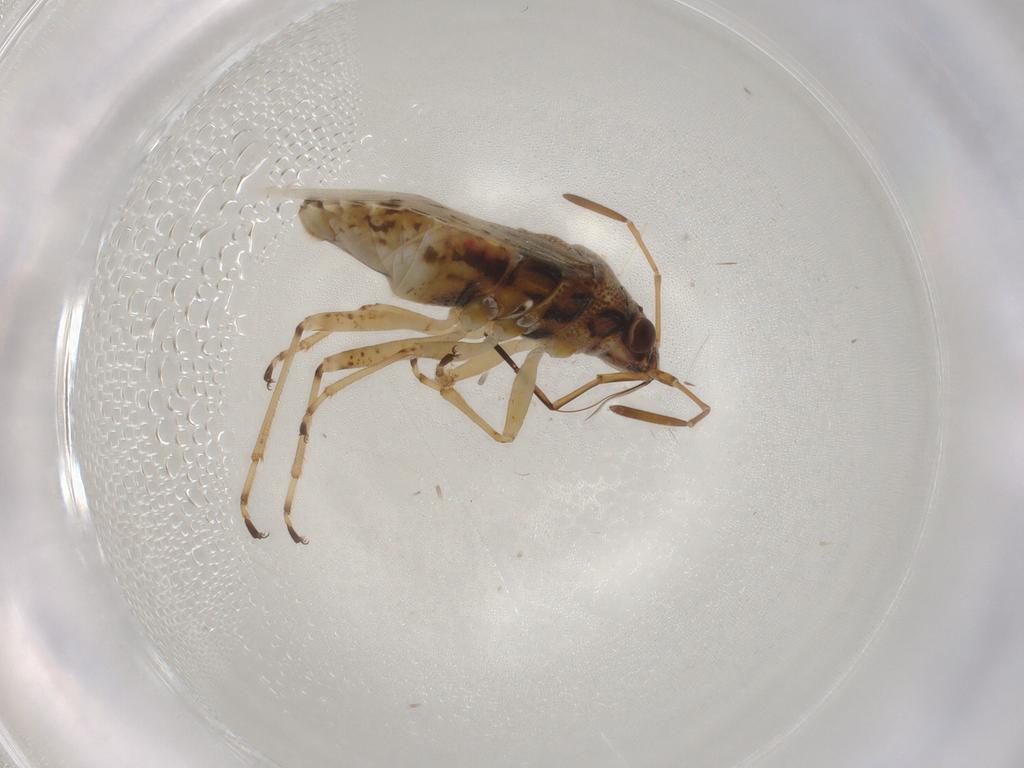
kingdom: Animalia
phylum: Arthropoda
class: Insecta
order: Hemiptera
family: Lygaeidae
